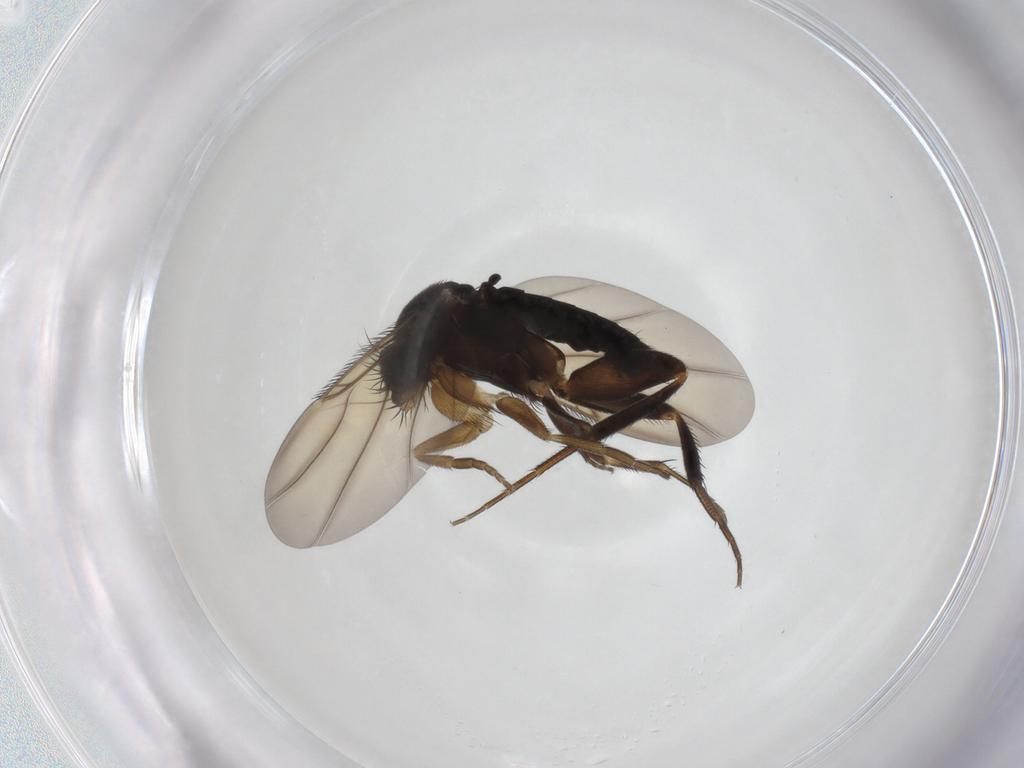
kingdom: Animalia
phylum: Arthropoda
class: Insecta
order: Diptera
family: Phoridae
